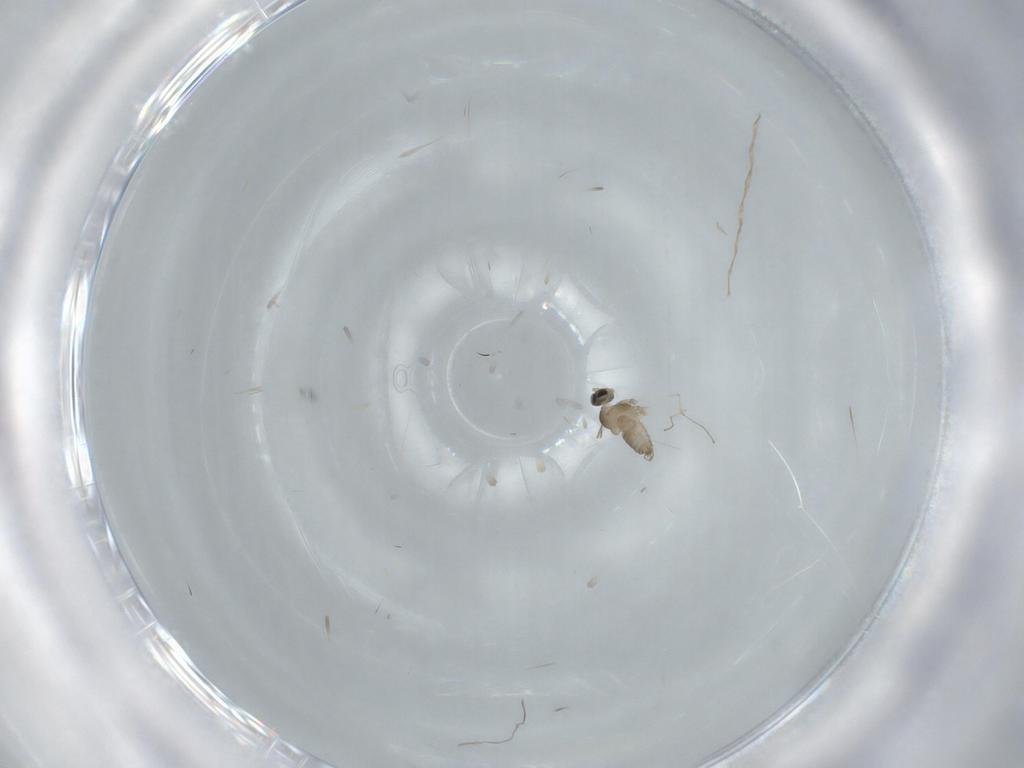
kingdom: Animalia
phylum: Arthropoda
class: Insecta
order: Diptera
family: Cecidomyiidae
